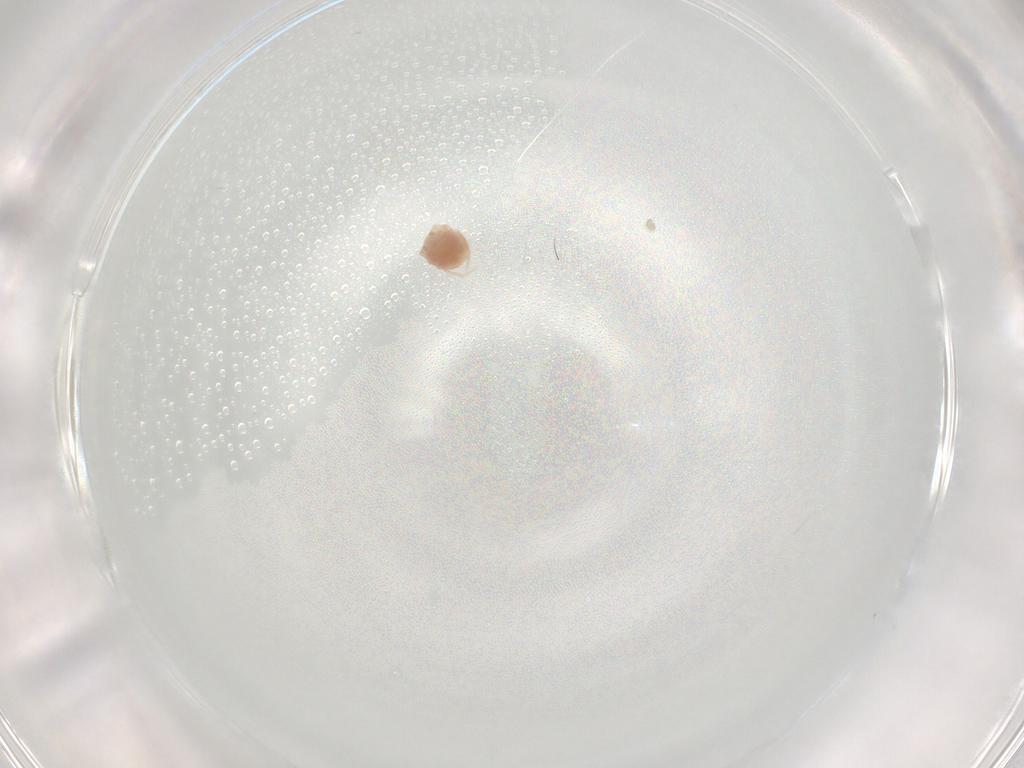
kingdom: Animalia
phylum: Arthropoda
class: Arachnida
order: Trombidiformes
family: Lebertiidae
